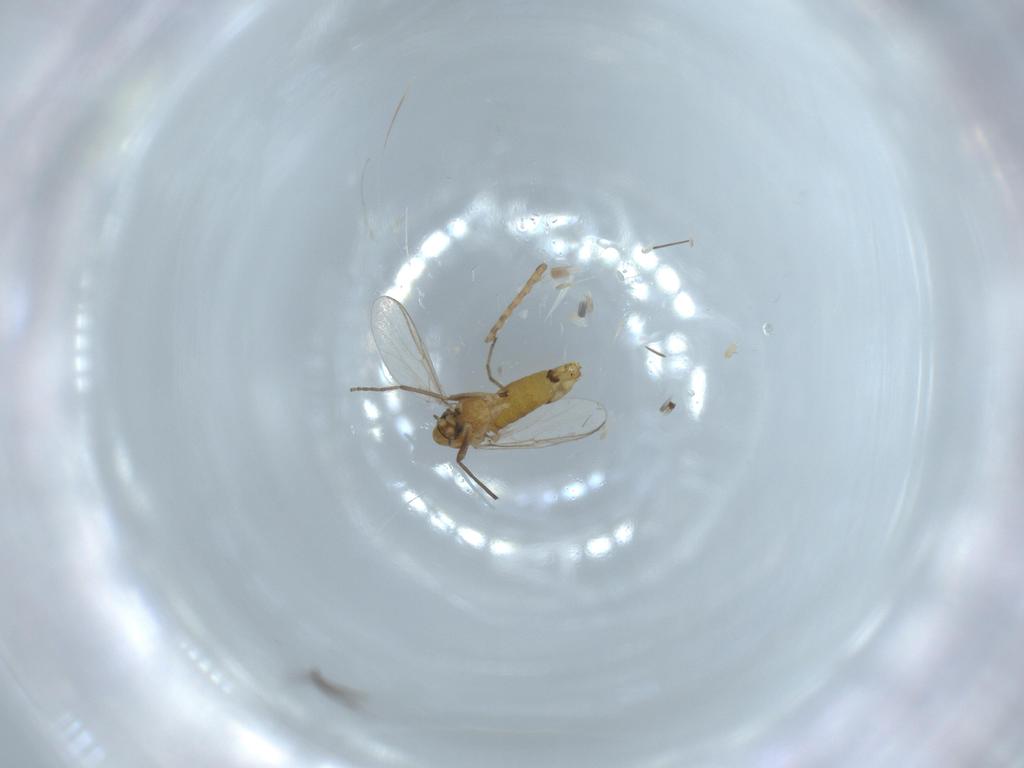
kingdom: Animalia
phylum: Arthropoda
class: Insecta
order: Diptera
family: Chironomidae
